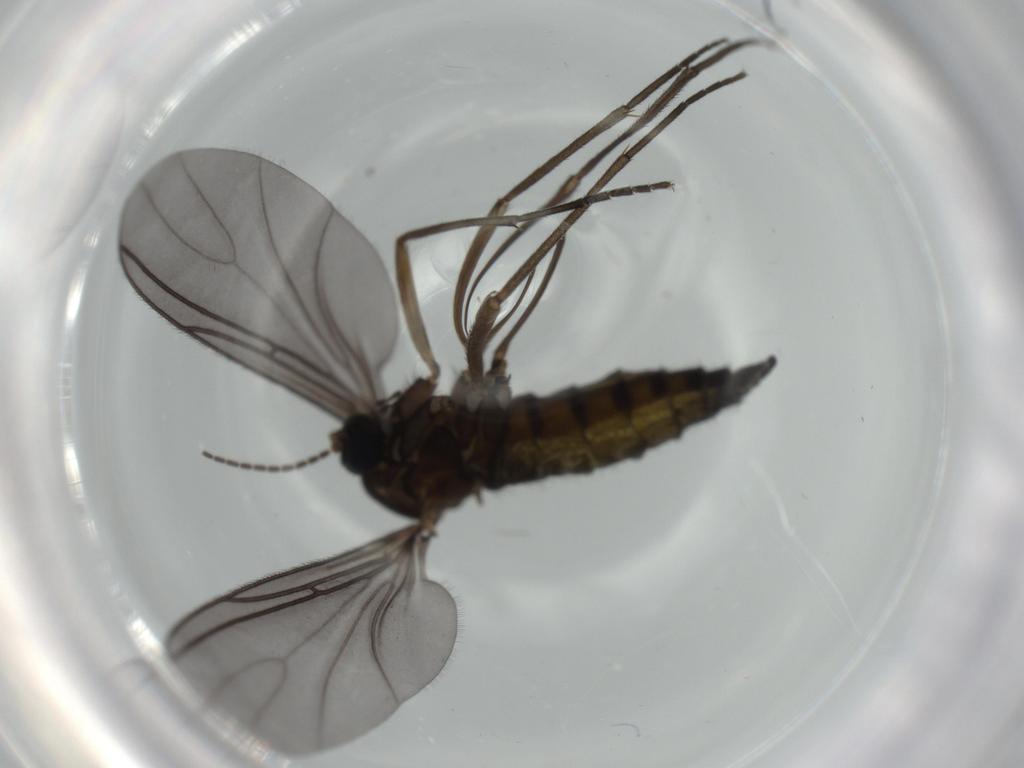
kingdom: Animalia
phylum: Arthropoda
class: Insecta
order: Diptera
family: Sciaridae
